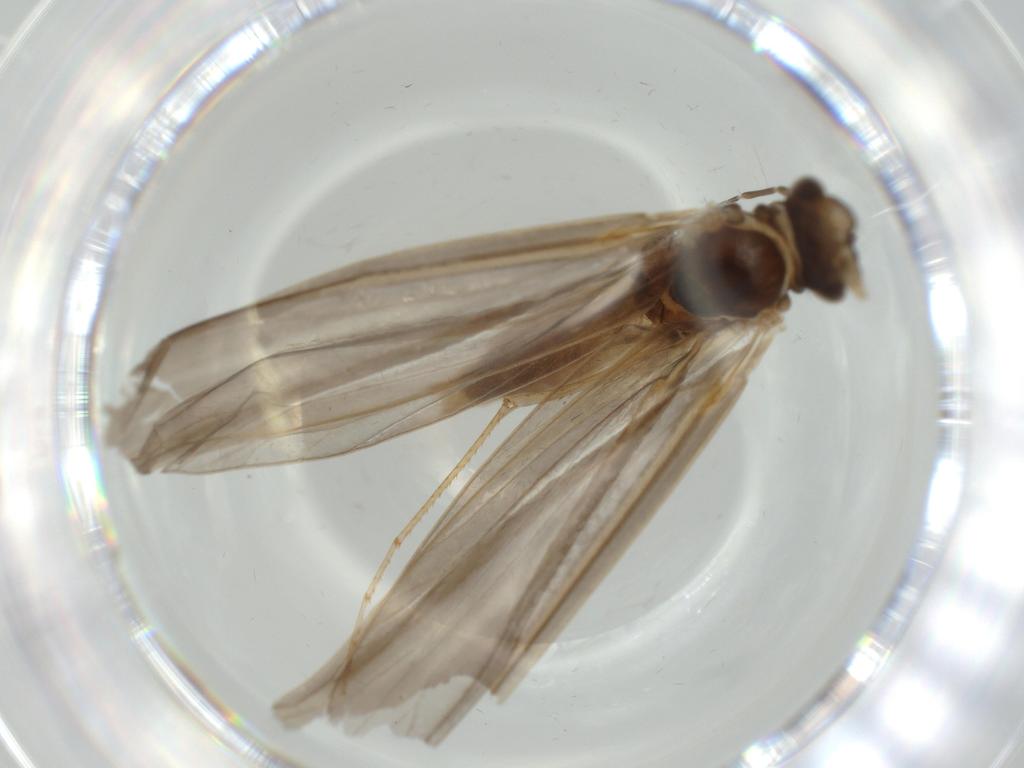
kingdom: Animalia
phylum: Arthropoda
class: Insecta
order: Trichoptera
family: Leptoceridae
